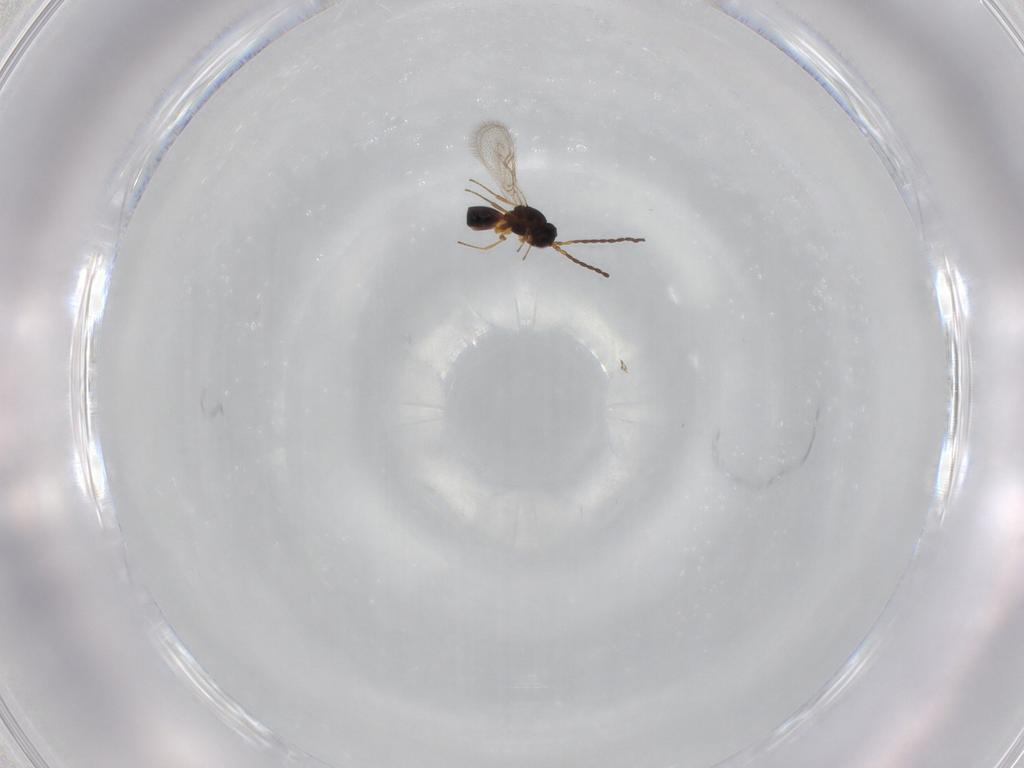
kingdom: Animalia
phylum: Arthropoda
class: Insecta
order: Hymenoptera
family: Figitidae
